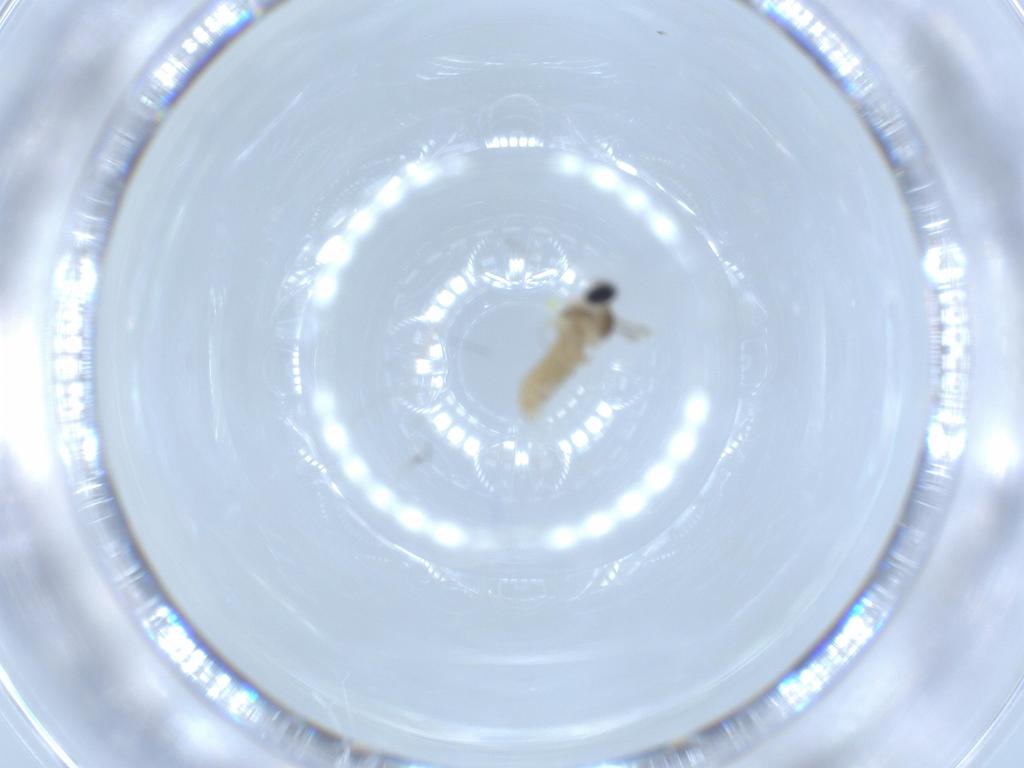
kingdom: Animalia
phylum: Arthropoda
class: Insecta
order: Diptera
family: Cecidomyiidae
